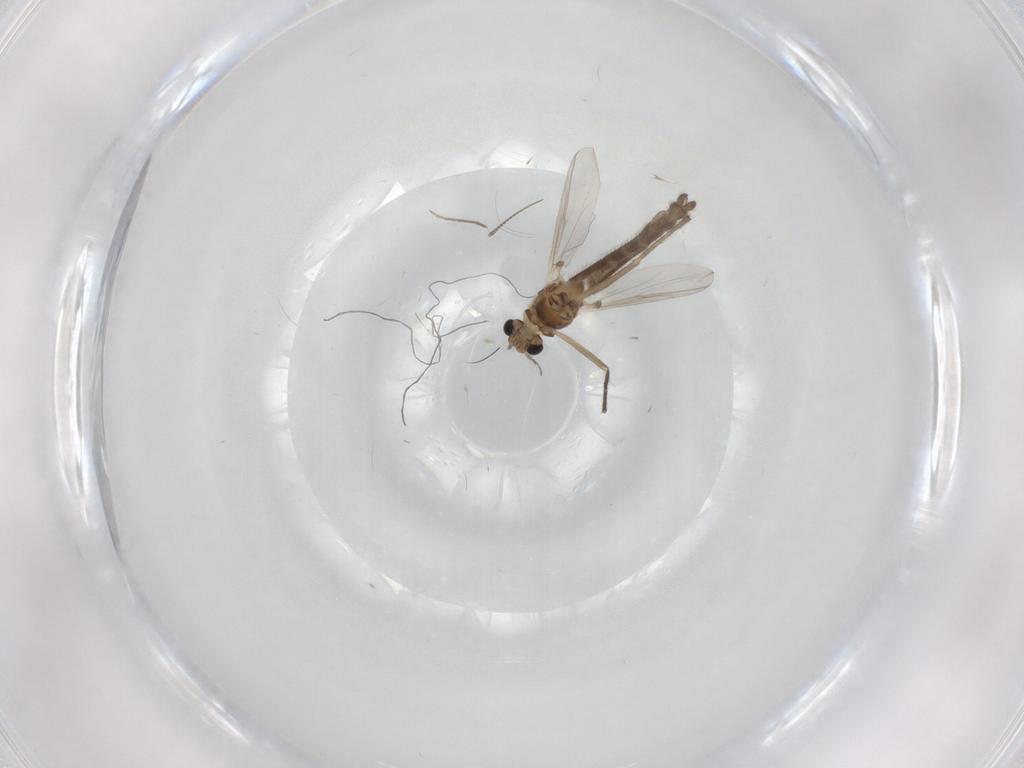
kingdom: Animalia
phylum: Arthropoda
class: Insecta
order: Diptera
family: Chironomidae
